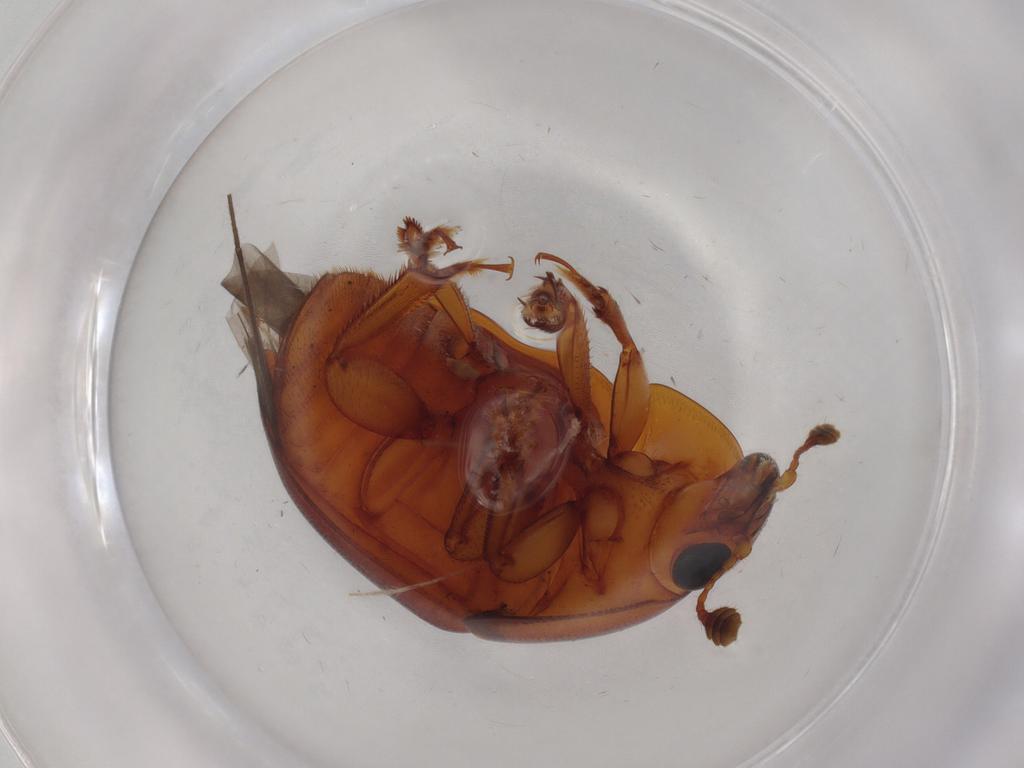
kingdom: Animalia
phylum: Arthropoda
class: Insecta
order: Coleoptera
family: Nitidulidae
